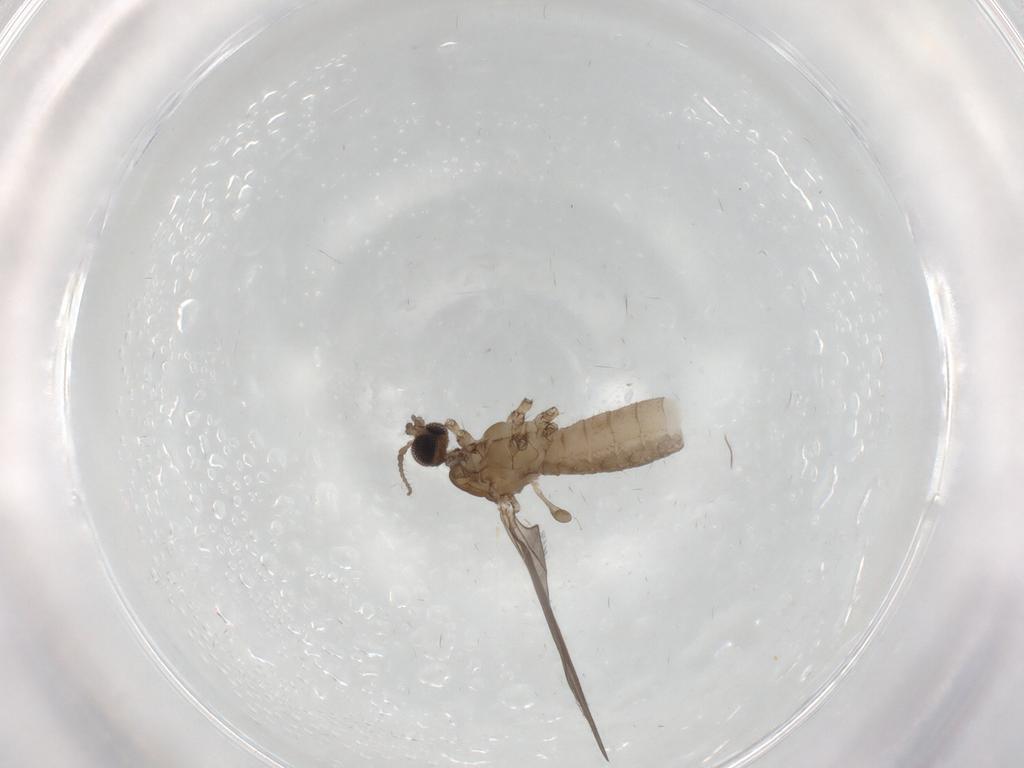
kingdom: Animalia
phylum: Arthropoda
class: Insecta
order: Diptera
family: Limoniidae
